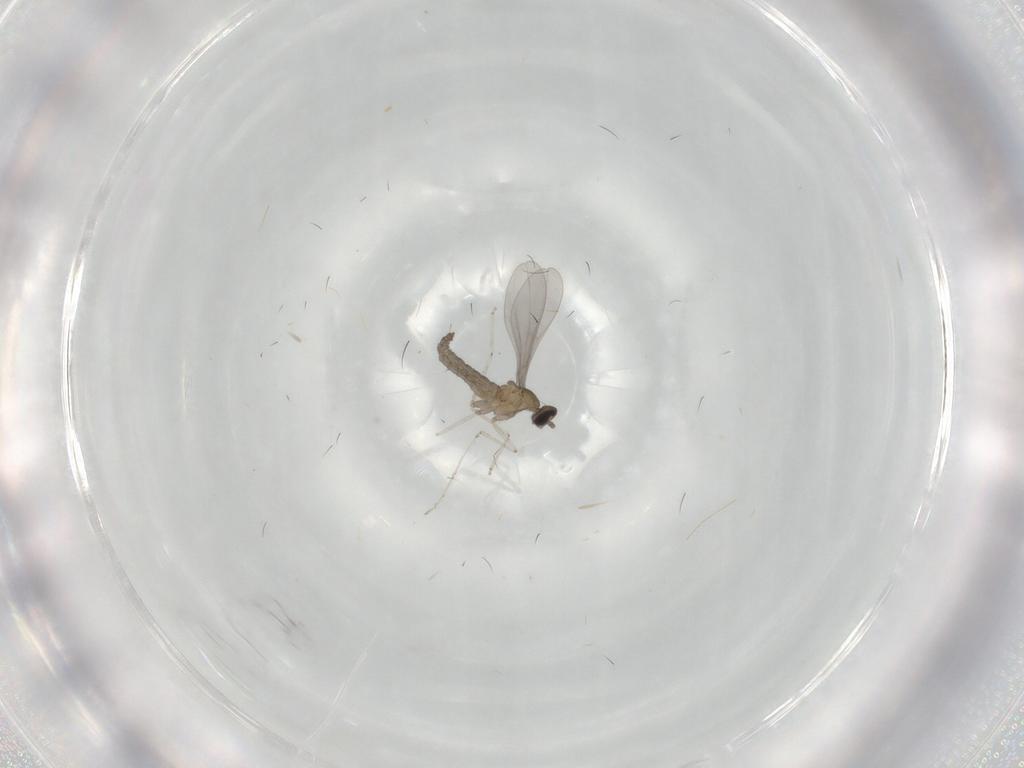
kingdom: Animalia
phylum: Arthropoda
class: Insecta
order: Diptera
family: Cecidomyiidae
